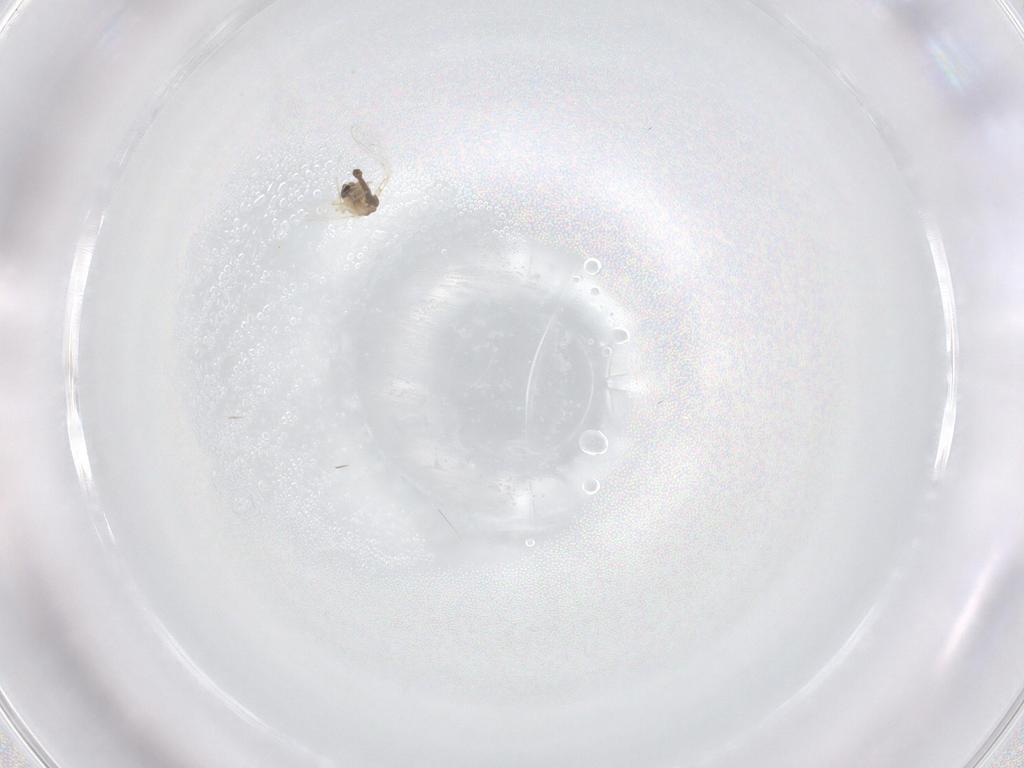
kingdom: Animalia
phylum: Arthropoda
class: Insecta
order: Diptera
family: Chironomidae
